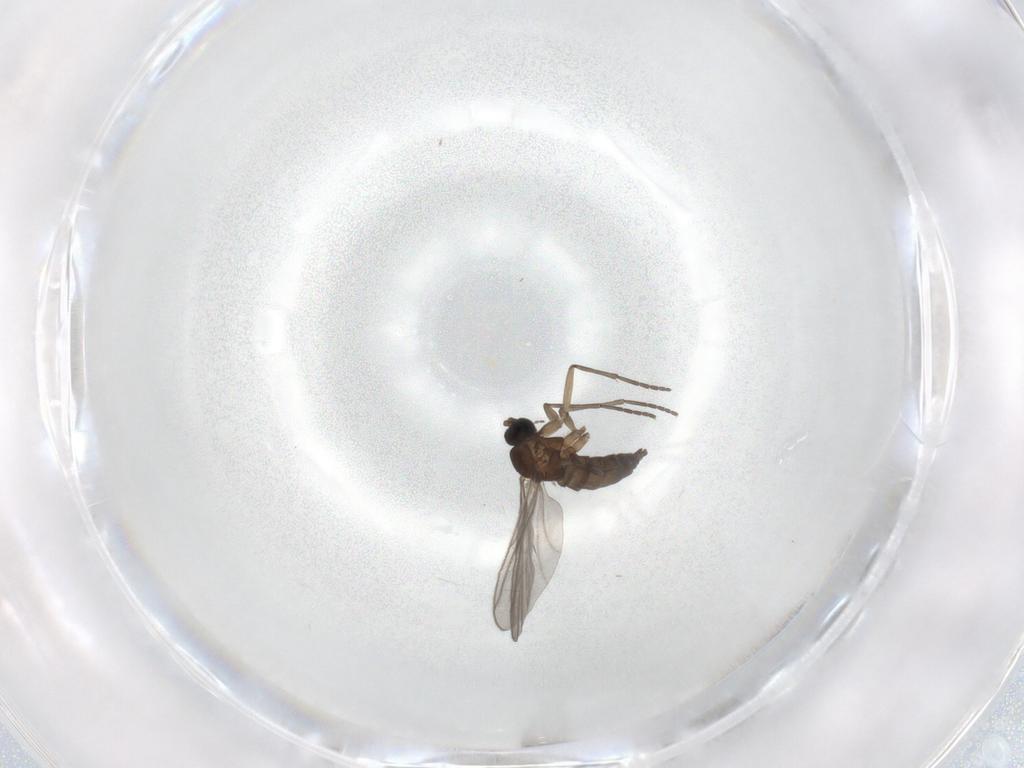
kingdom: Animalia
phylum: Arthropoda
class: Insecta
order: Diptera
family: Sciaridae
